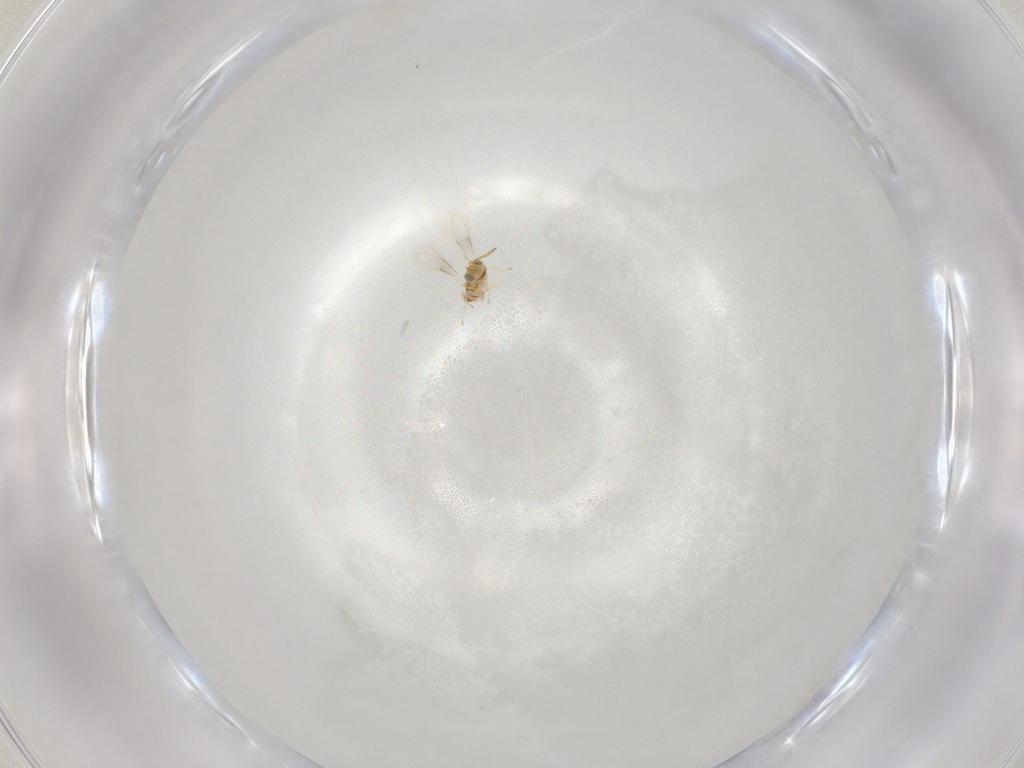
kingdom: Animalia
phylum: Arthropoda
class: Insecta
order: Hymenoptera
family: Aphelinidae
